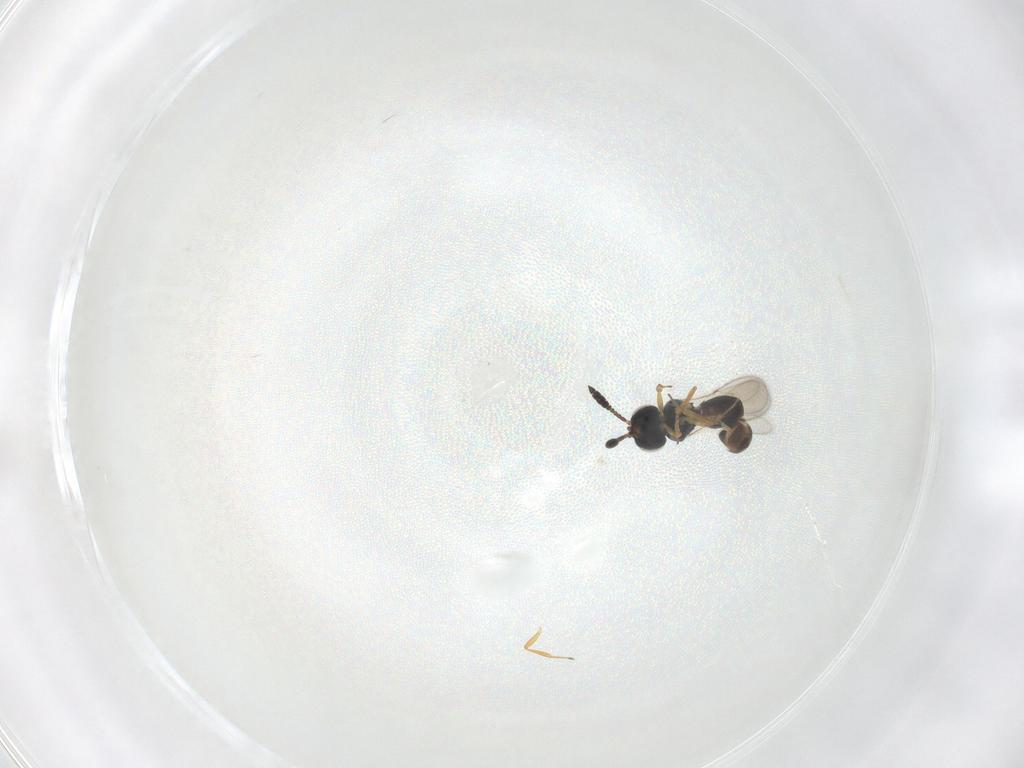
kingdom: Animalia
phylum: Arthropoda
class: Insecta
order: Hymenoptera
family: Scelionidae
